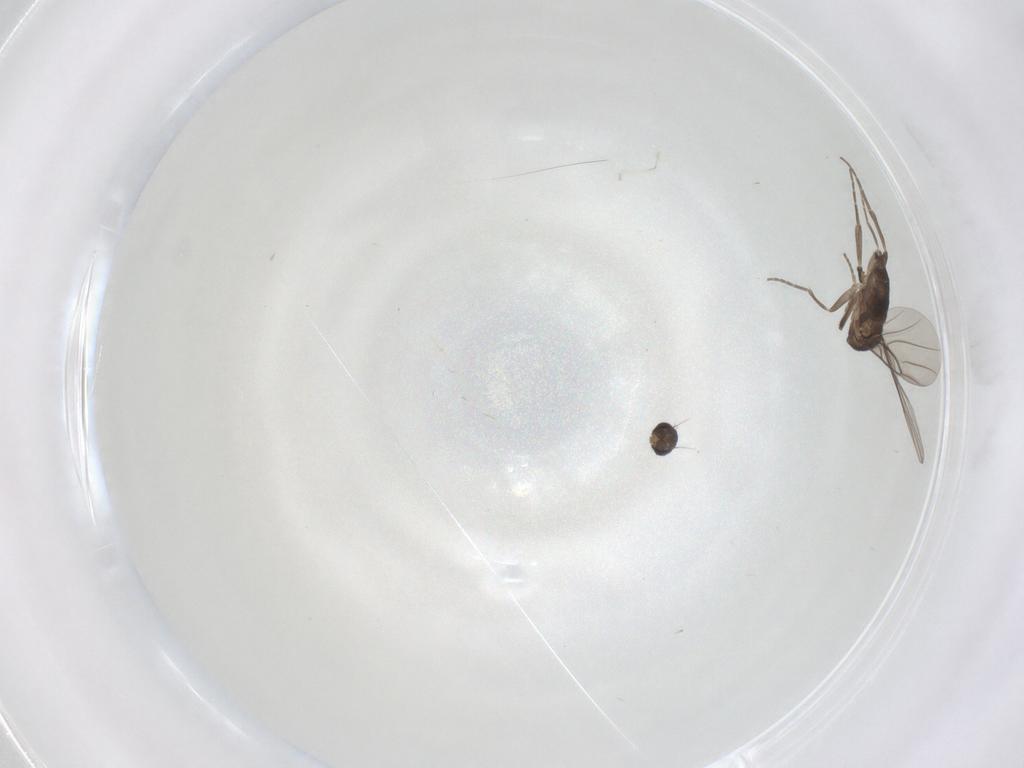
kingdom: Animalia
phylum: Arthropoda
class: Insecta
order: Diptera
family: Phoridae
